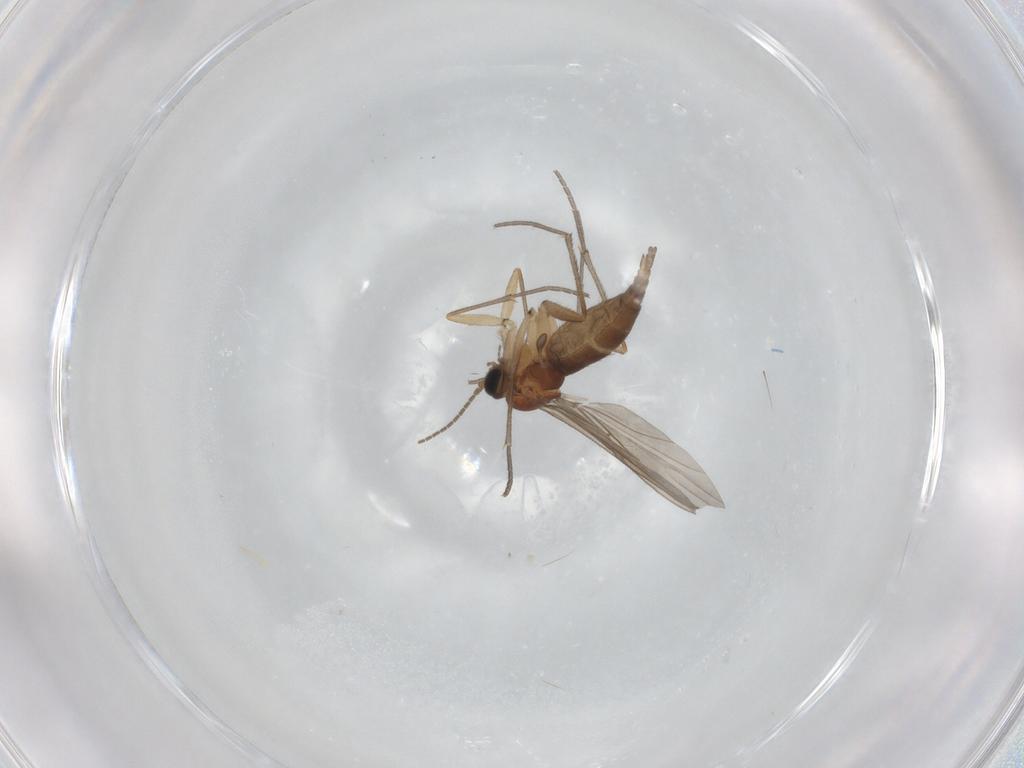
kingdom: Animalia
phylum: Arthropoda
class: Insecta
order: Diptera
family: Sciaridae
